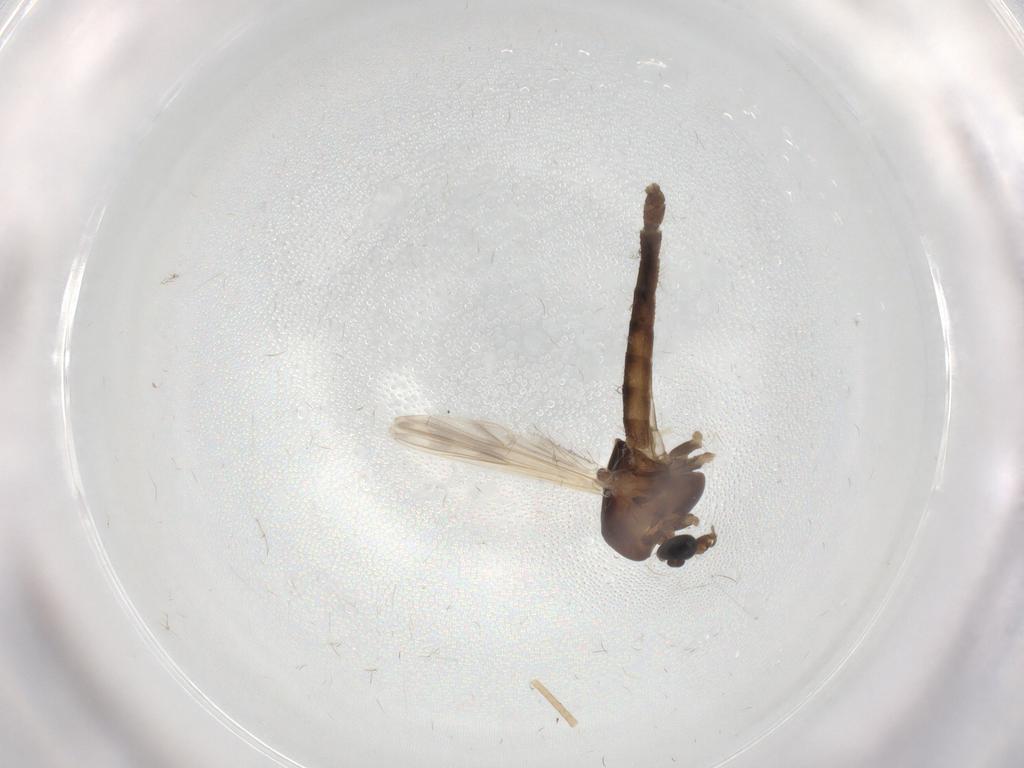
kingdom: Animalia
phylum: Arthropoda
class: Insecta
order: Diptera
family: Chironomidae
